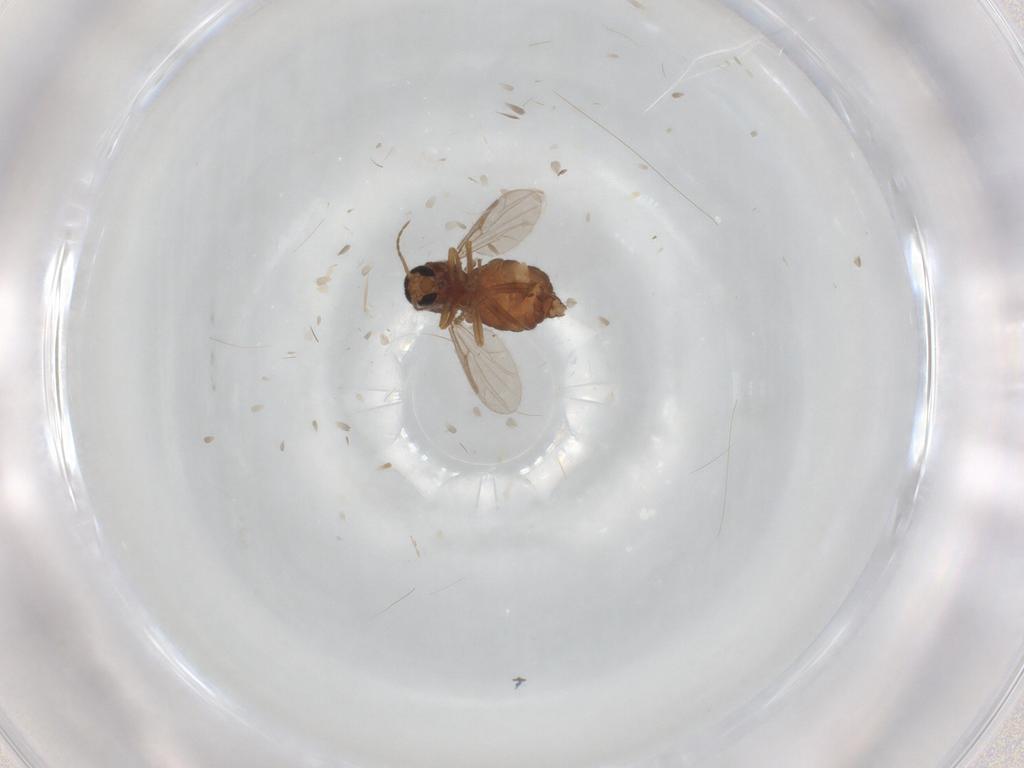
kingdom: Animalia
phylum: Arthropoda
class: Insecta
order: Diptera
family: Ceratopogonidae
